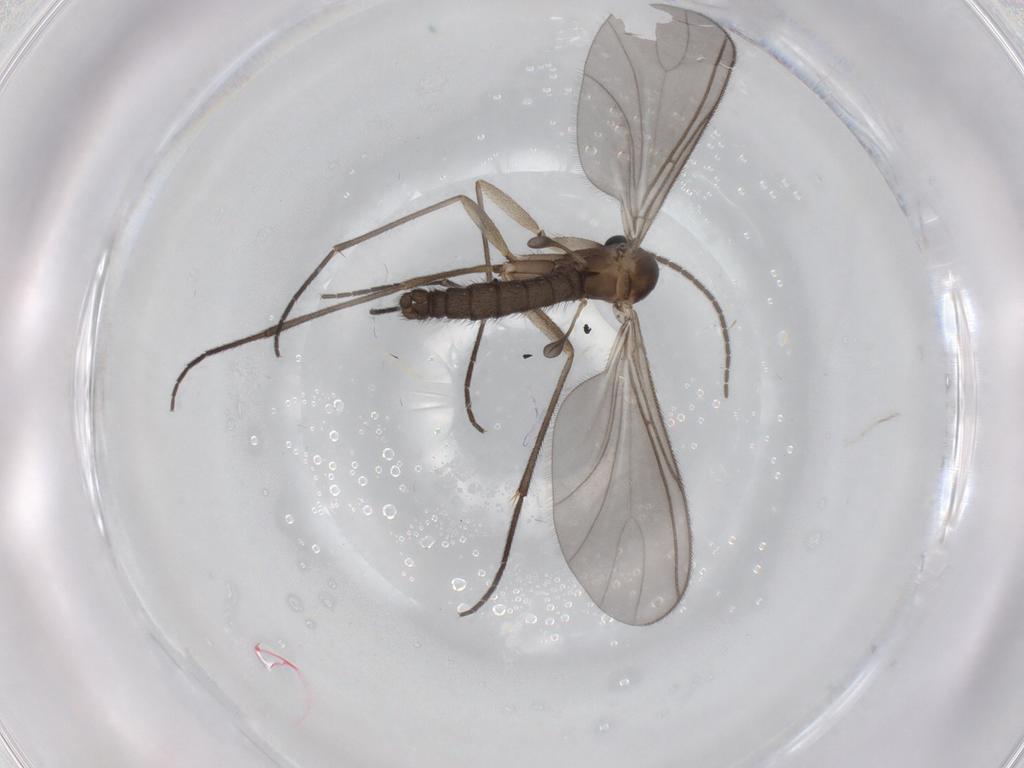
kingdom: Animalia
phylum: Arthropoda
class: Insecta
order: Diptera
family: Sciaridae
